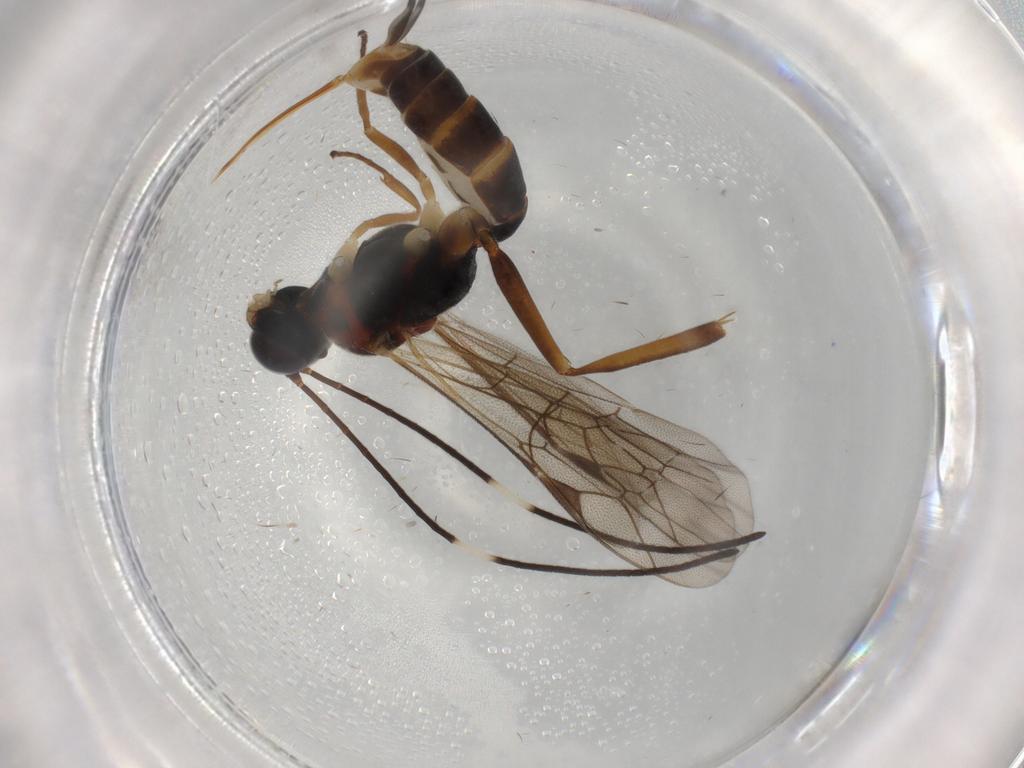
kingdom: Animalia
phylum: Arthropoda
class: Insecta
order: Hymenoptera
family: Ichneumonidae
